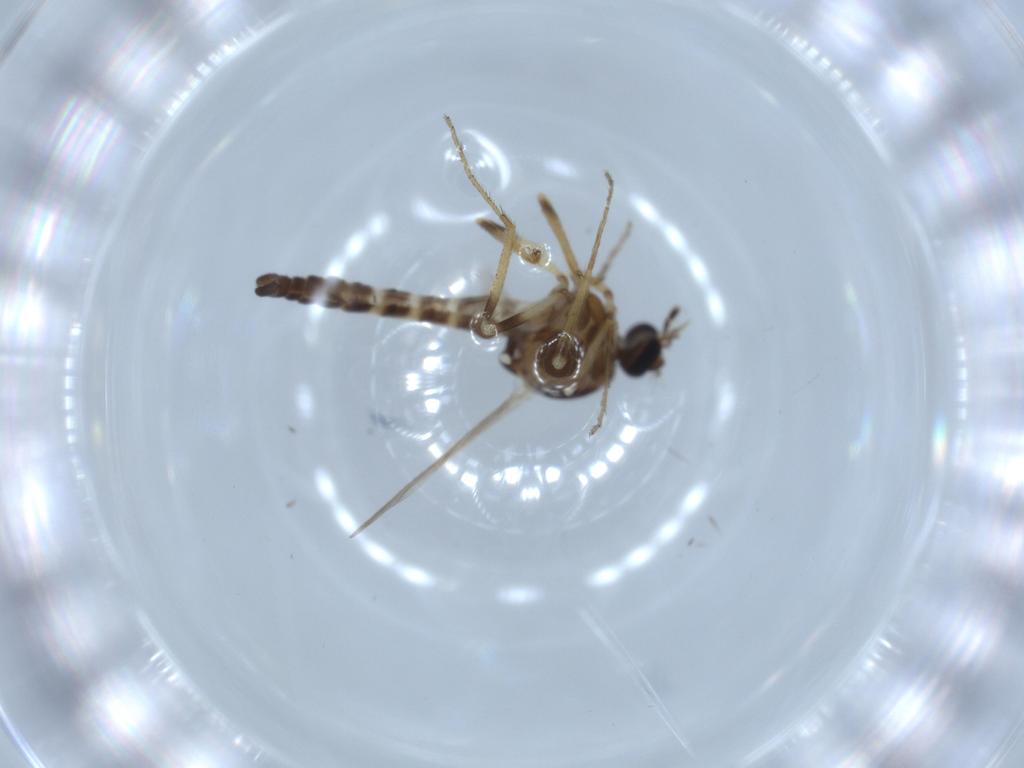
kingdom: Animalia
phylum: Arthropoda
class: Insecta
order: Diptera
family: Ceratopogonidae
